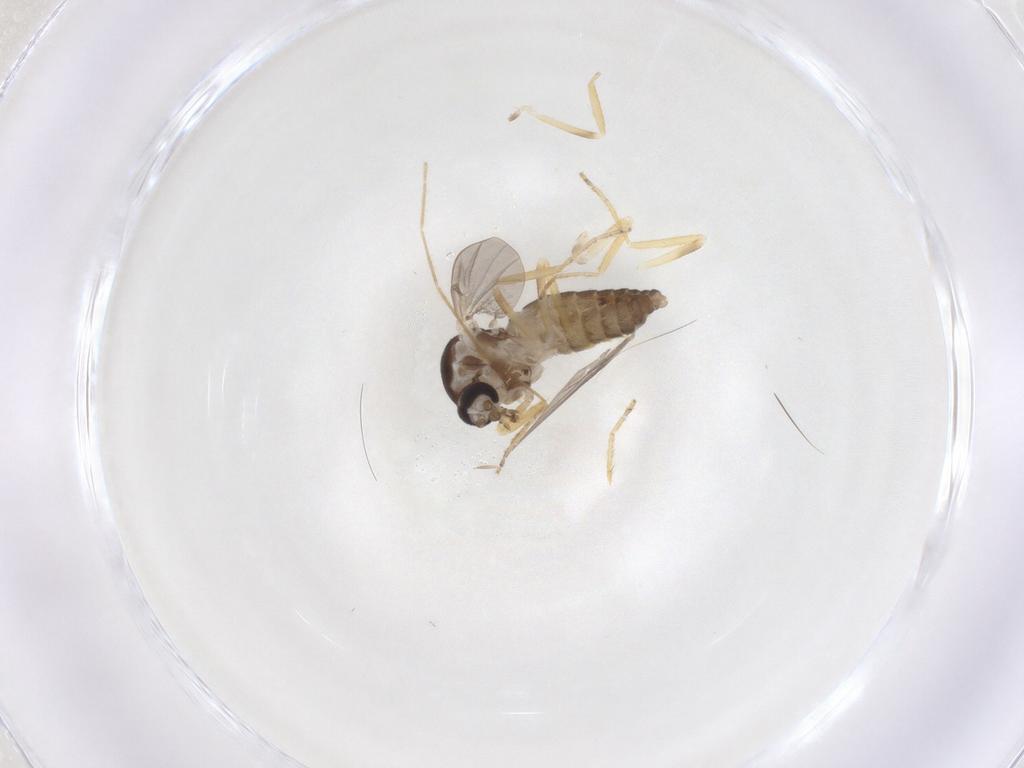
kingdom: Animalia
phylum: Arthropoda
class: Insecta
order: Diptera
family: Ceratopogonidae
